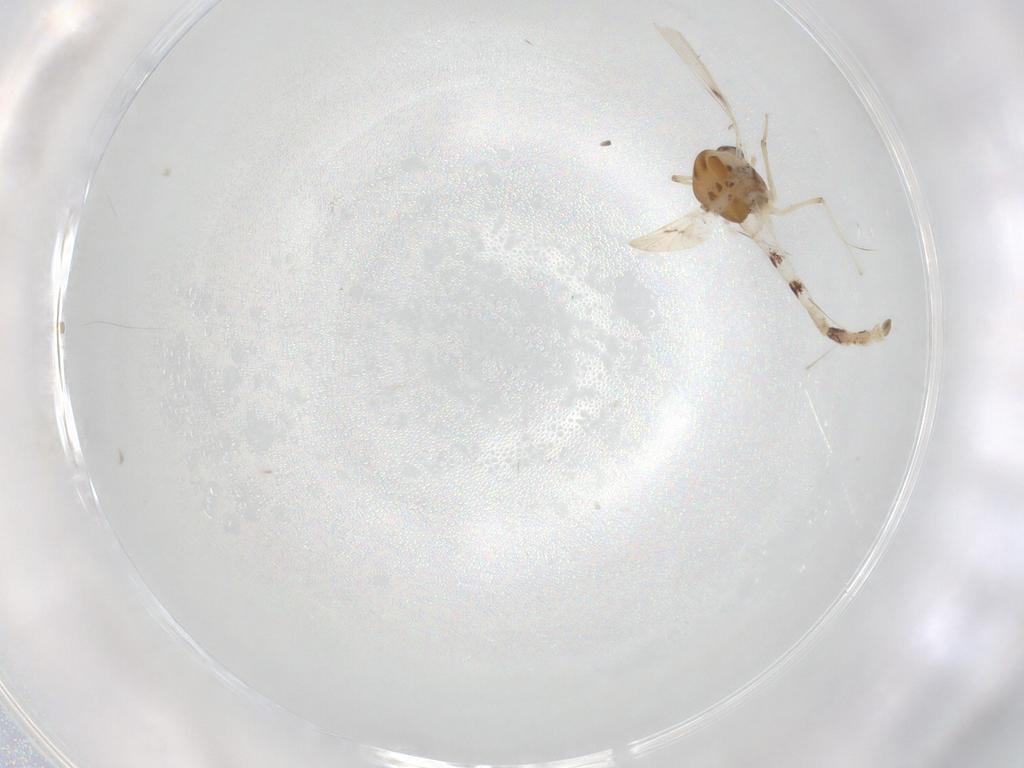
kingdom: Animalia
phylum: Arthropoda
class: Insecta
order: Diptera
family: Chironomidae
